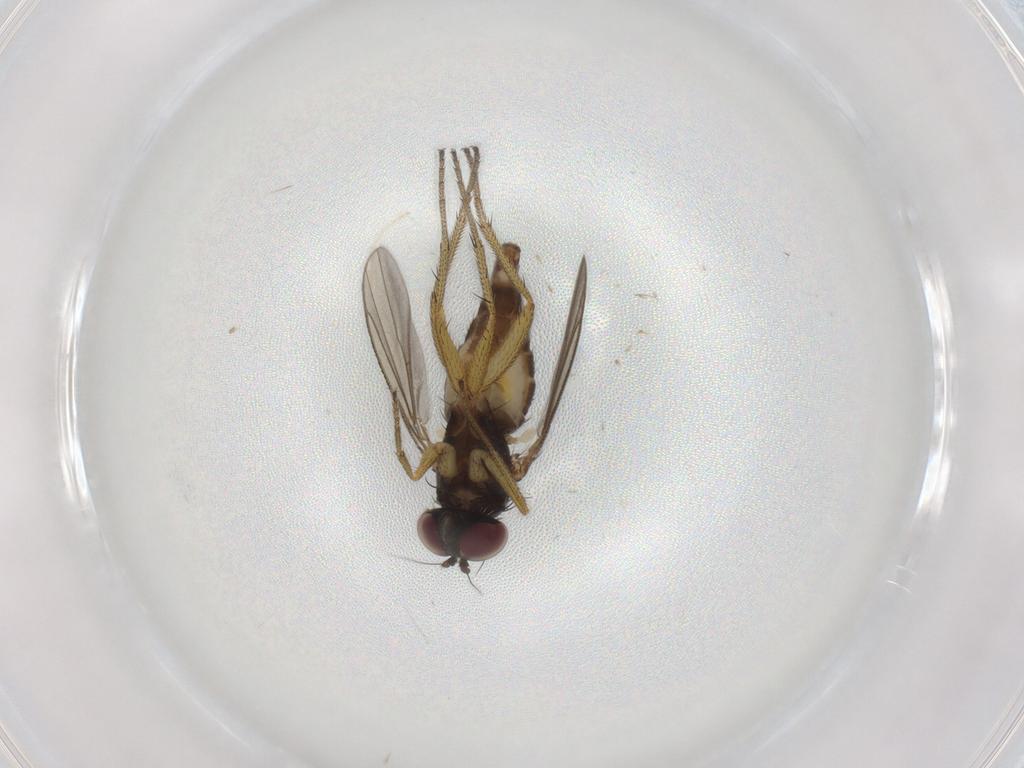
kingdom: Animalia
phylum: Arthropoda
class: Insecta
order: Diptera
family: Dolichopodidae
